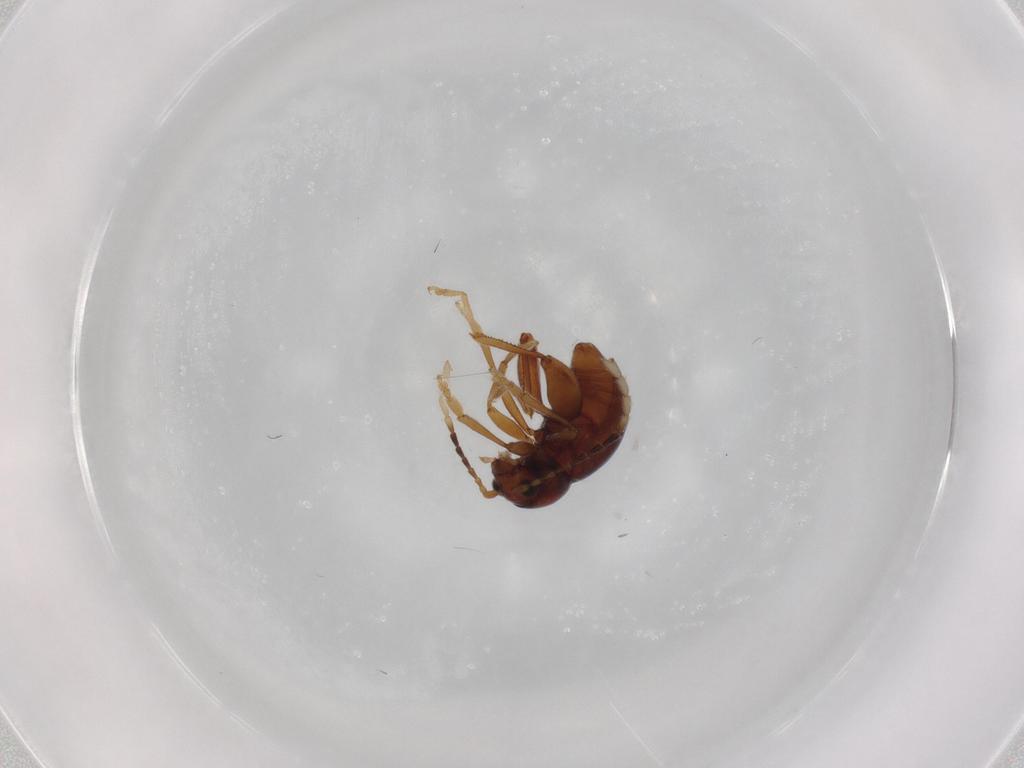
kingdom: Animalia
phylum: Arthropoda
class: Insecta
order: Coleoptera
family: Chrysomelidae
